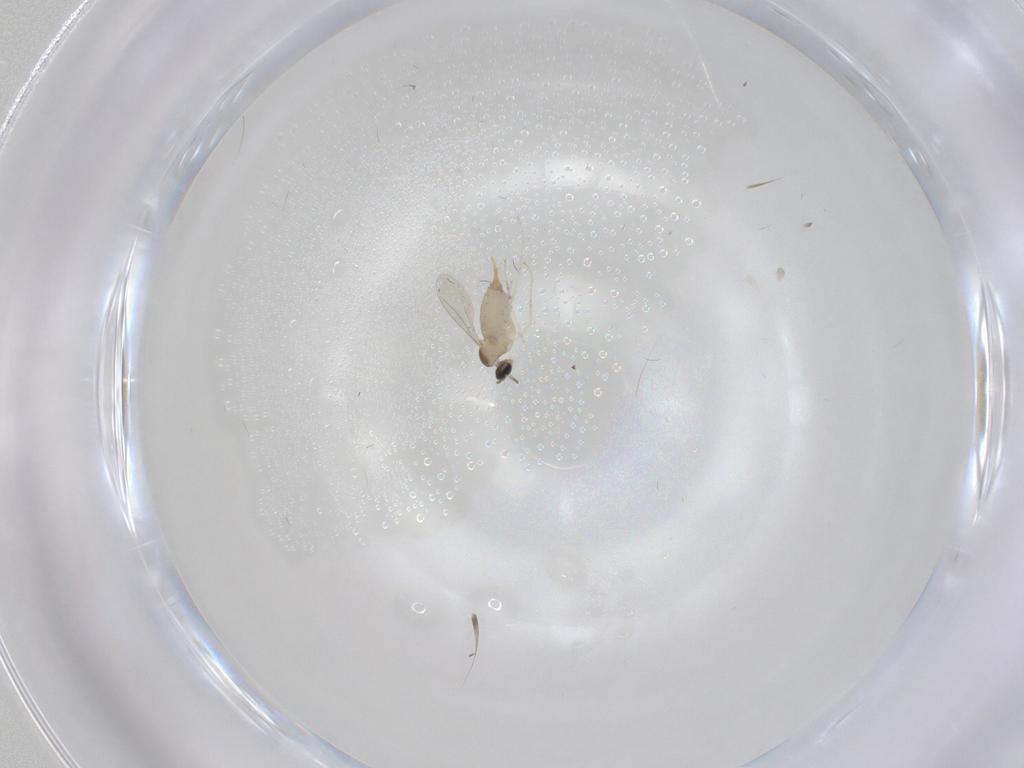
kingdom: Animalia
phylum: Arthropoda
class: Insecta
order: Diptera
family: Cecidomyiidae
